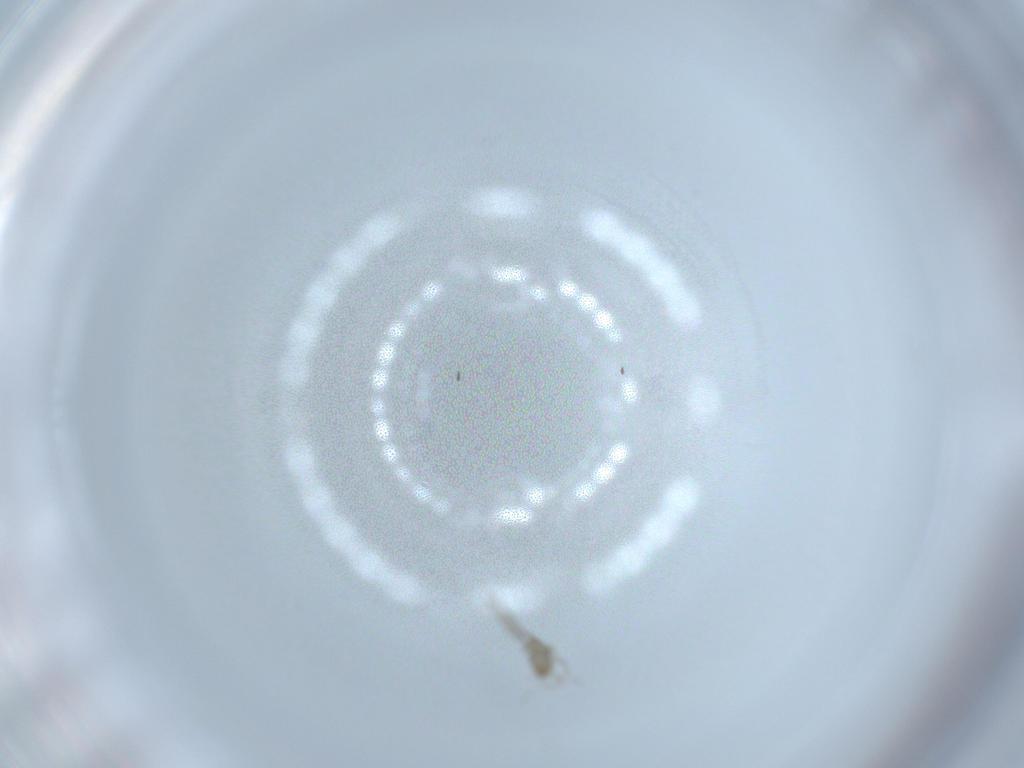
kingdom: Animalia
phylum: Arthropoda
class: Insecta
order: Diptera
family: Cecidomyiidae
